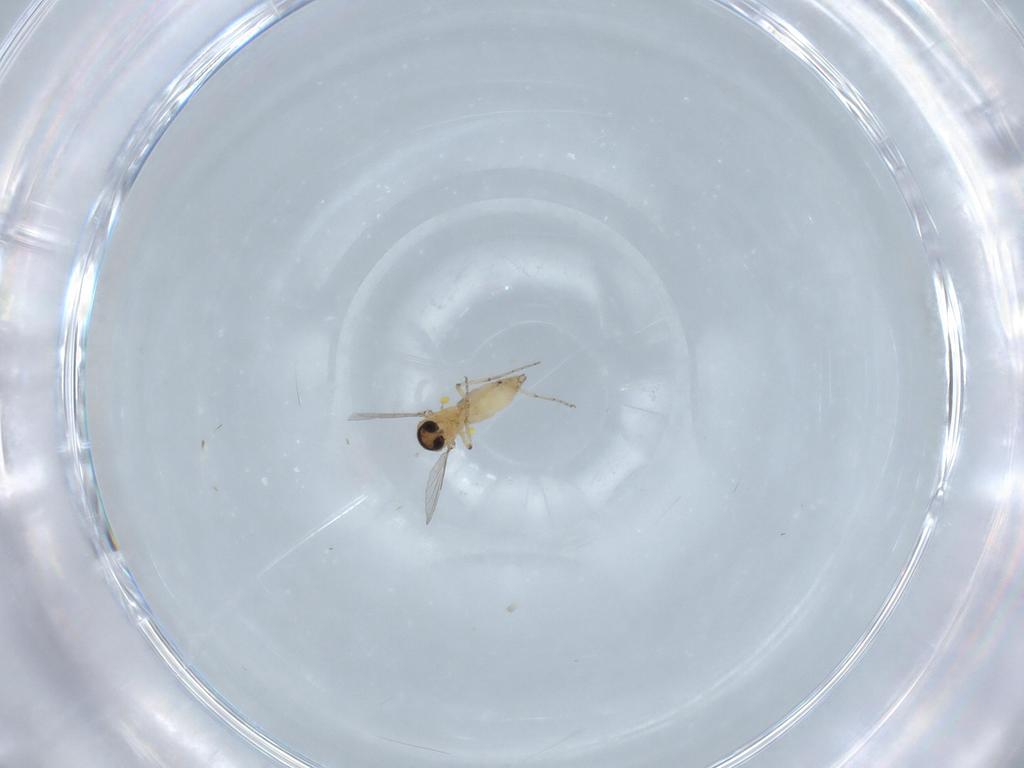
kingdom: Animalia
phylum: Arthropoda
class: Insecta
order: Diptera
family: Ceratopogonidae
